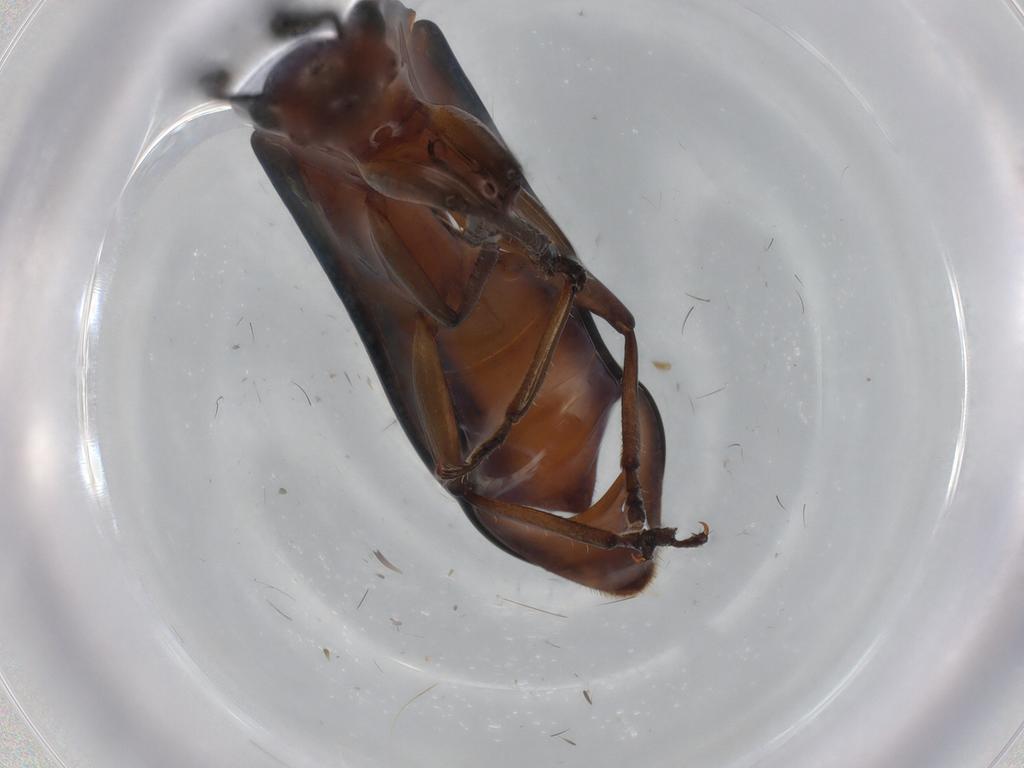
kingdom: Animalia
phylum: Arthropoda
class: Insecta
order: Coleoptera
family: Erotylidae
